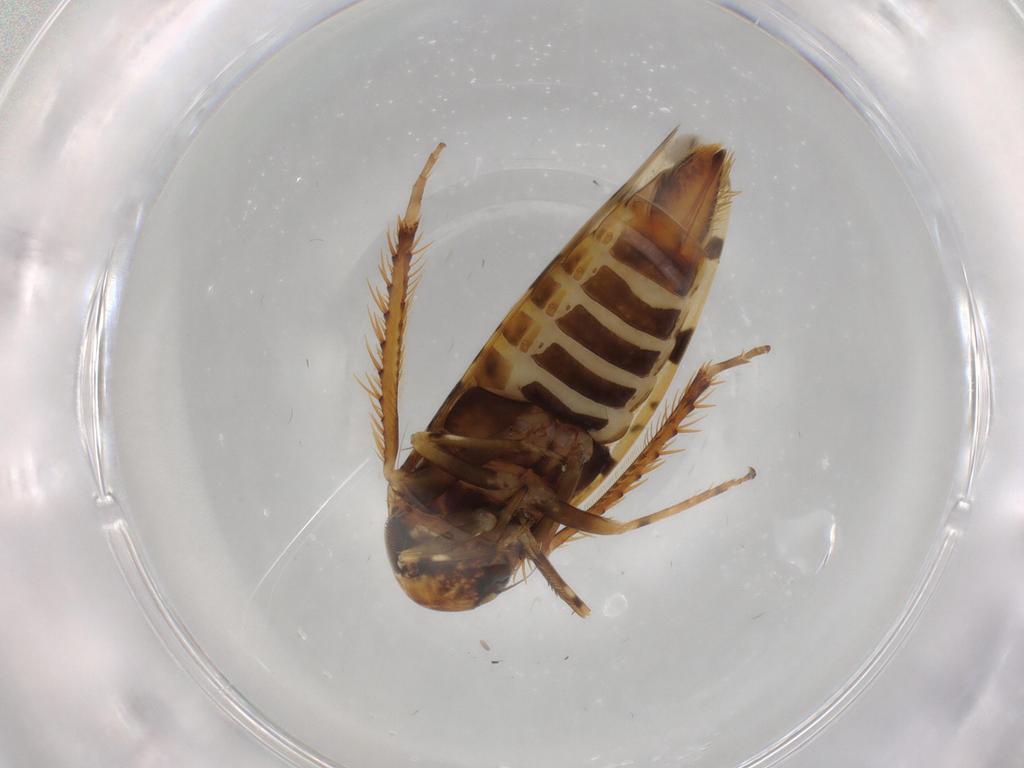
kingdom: Animalia
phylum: Arthropoda
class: Insecta
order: Hemiptera
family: Cicadellidae
